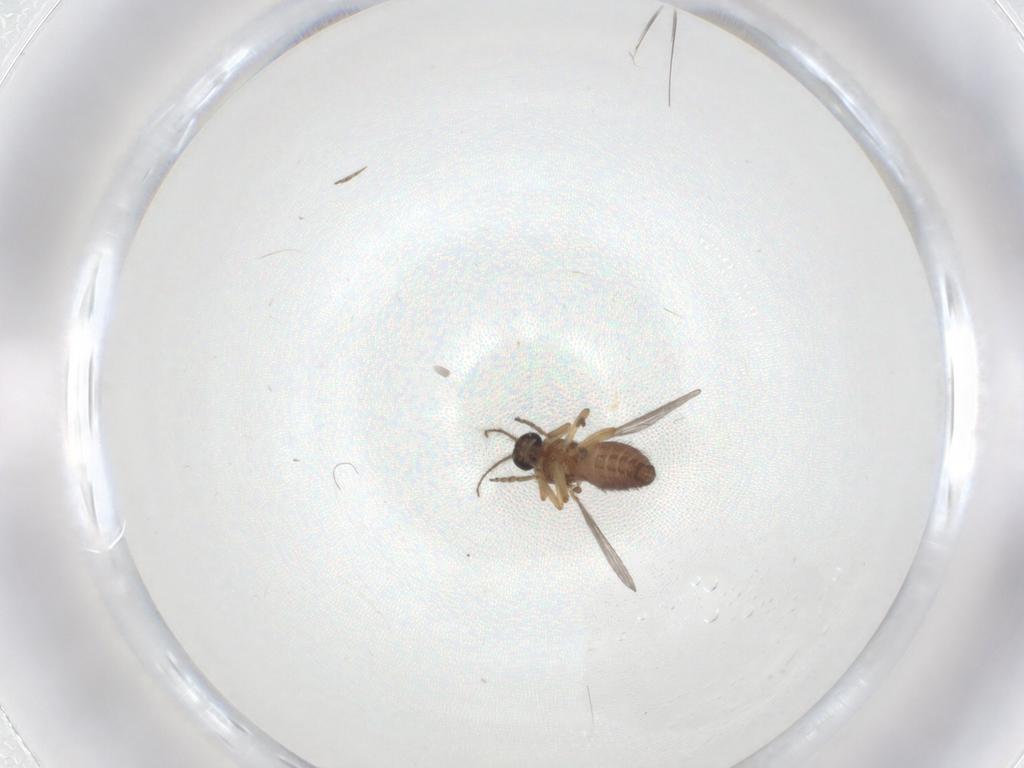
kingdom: Animalia
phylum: Arthropoda
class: Insecta
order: Diptera
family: Ceratopogonidae
